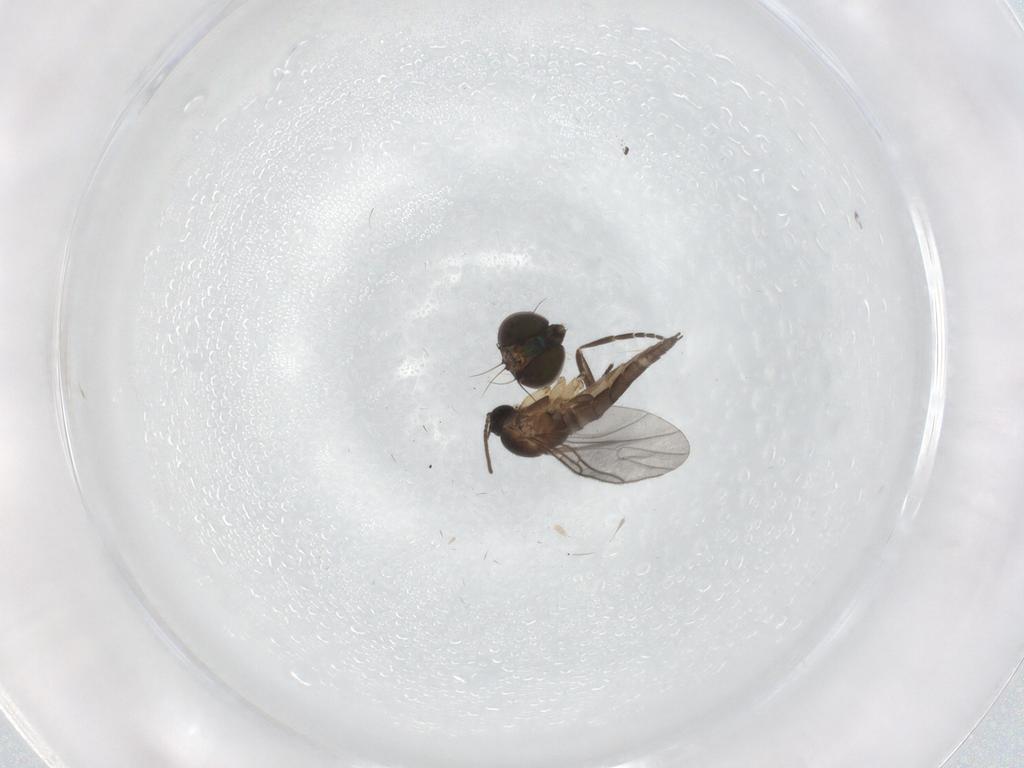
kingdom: Animalia
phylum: Arthropoda
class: Insecta
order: Diptera
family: Sciaridae
